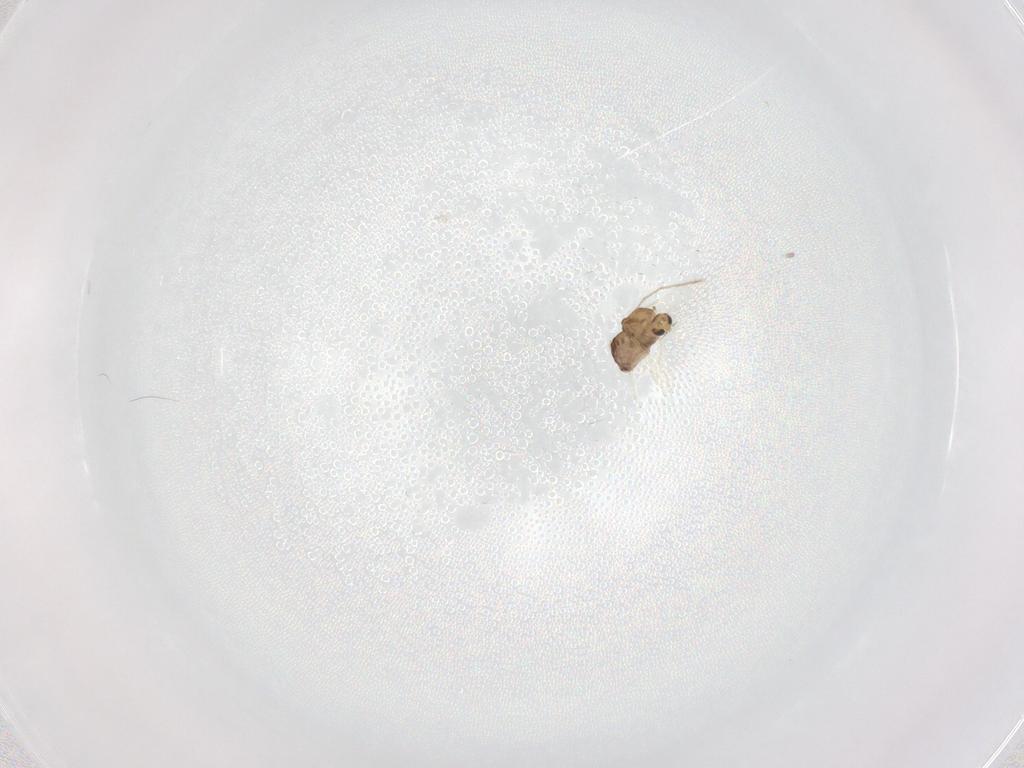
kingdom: Animalia
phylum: Arthropoda
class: Insecta
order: Diptera
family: Chironomidae
